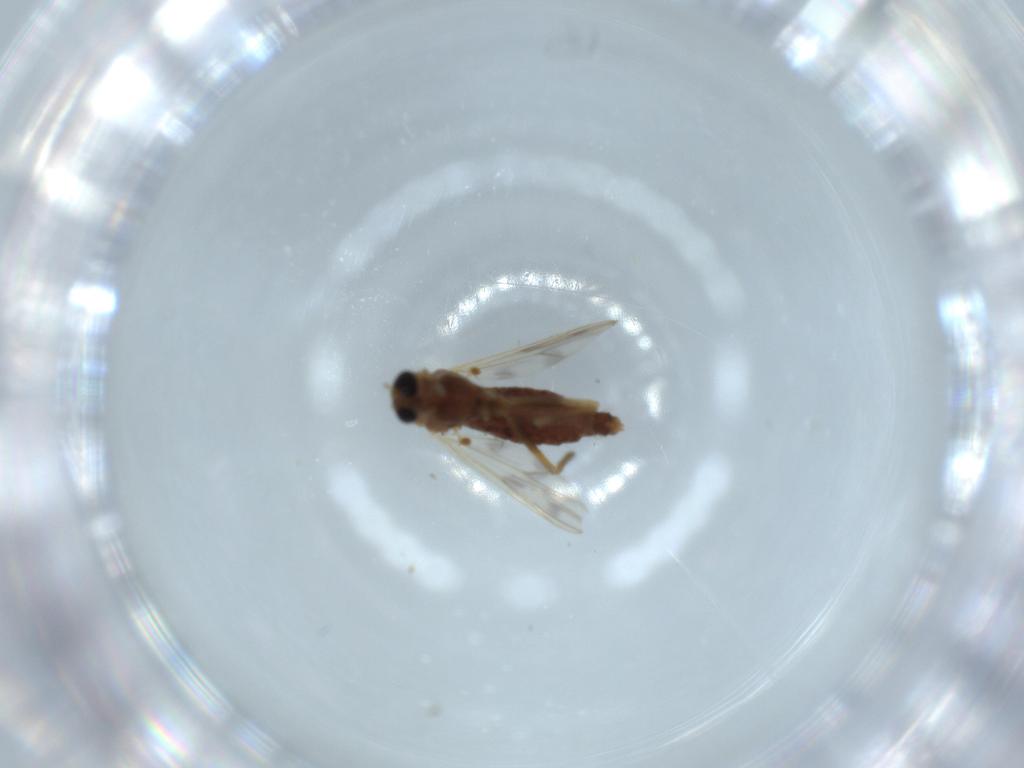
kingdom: Animalia
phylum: Arthropoda
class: Insecta
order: Diptera
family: Chironomidae
